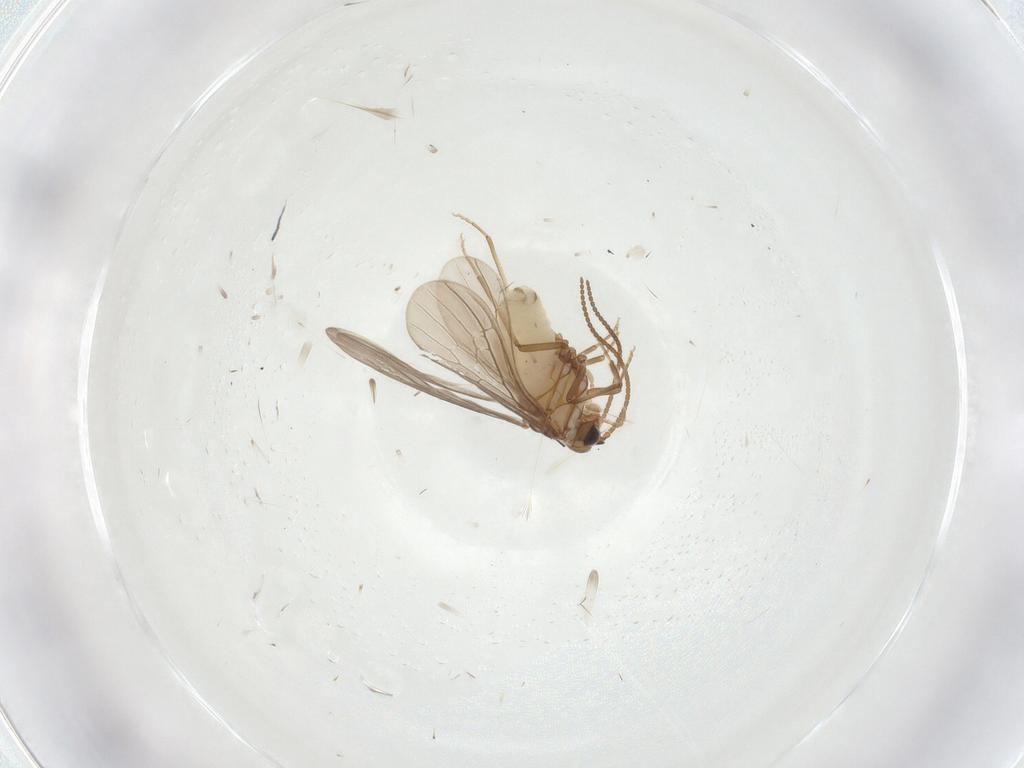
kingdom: Animalia
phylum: Arthropoda
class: Insecta
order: Neuroptera
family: Coniopterygidae
